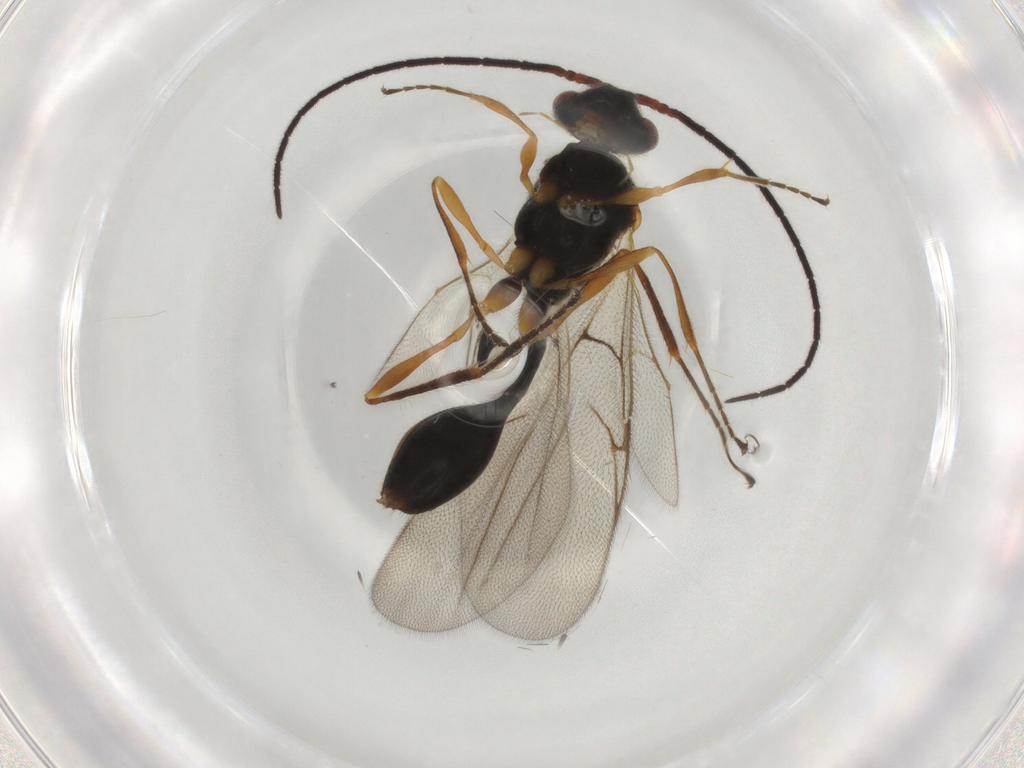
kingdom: Animalia
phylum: Arthropoda
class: Insecta
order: Hymenoptera
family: Diapriidae
